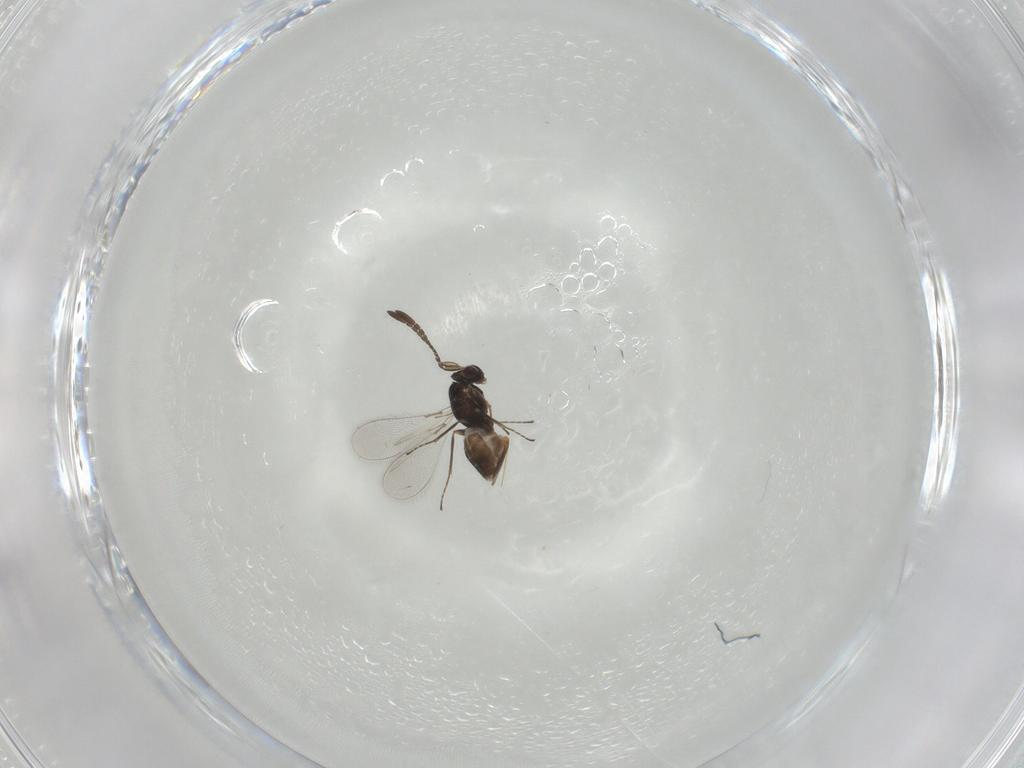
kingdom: Animalia
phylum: Arthropoda
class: Insecta
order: Hymenoptera
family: Mymaridae
